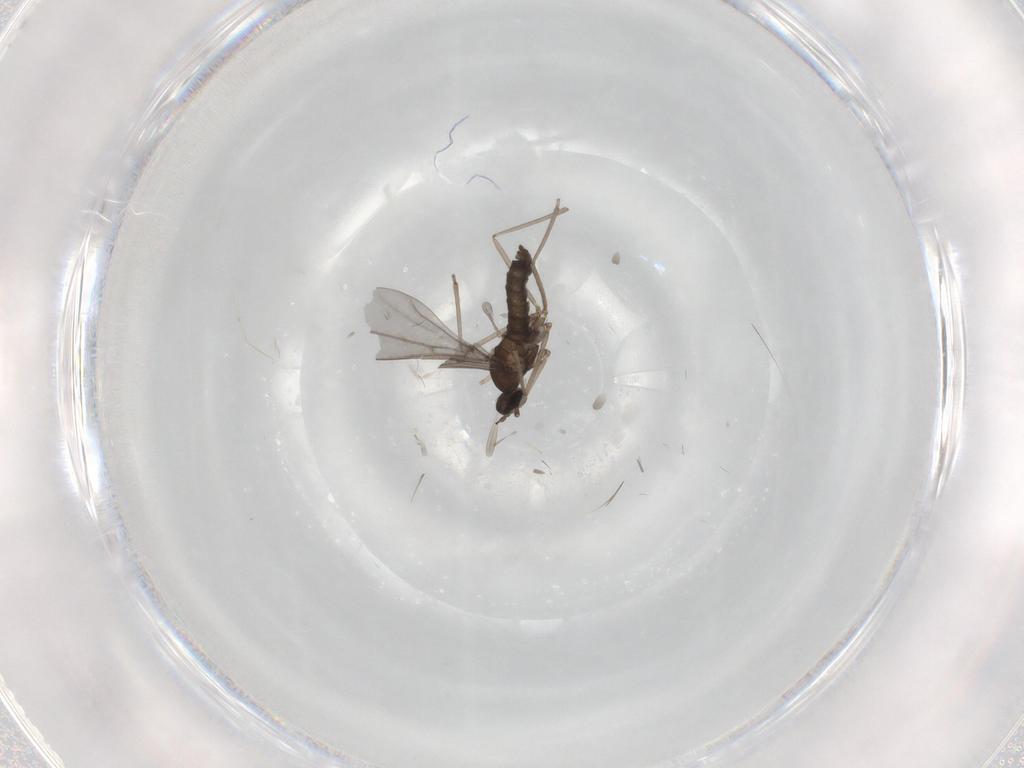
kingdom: Animalia
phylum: Arthropoda
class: Insecta
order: Diptera
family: Cecidomyiidae
